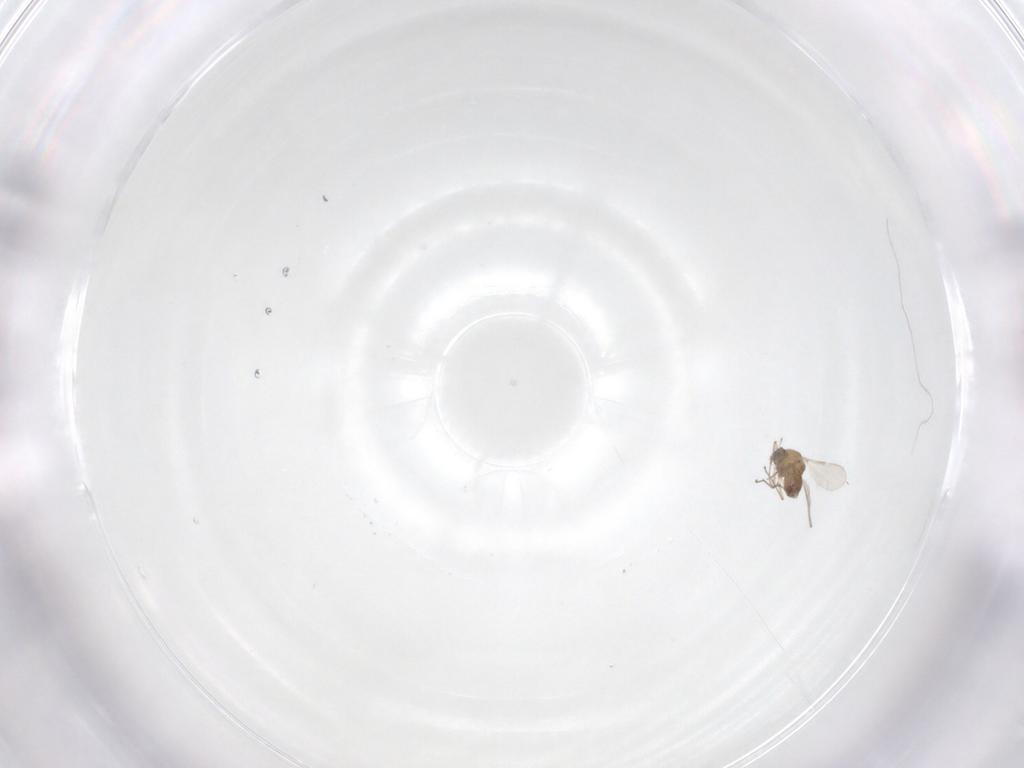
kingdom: Animalia
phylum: Arthropoda
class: Insecta
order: Diptera
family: Chironomidae
